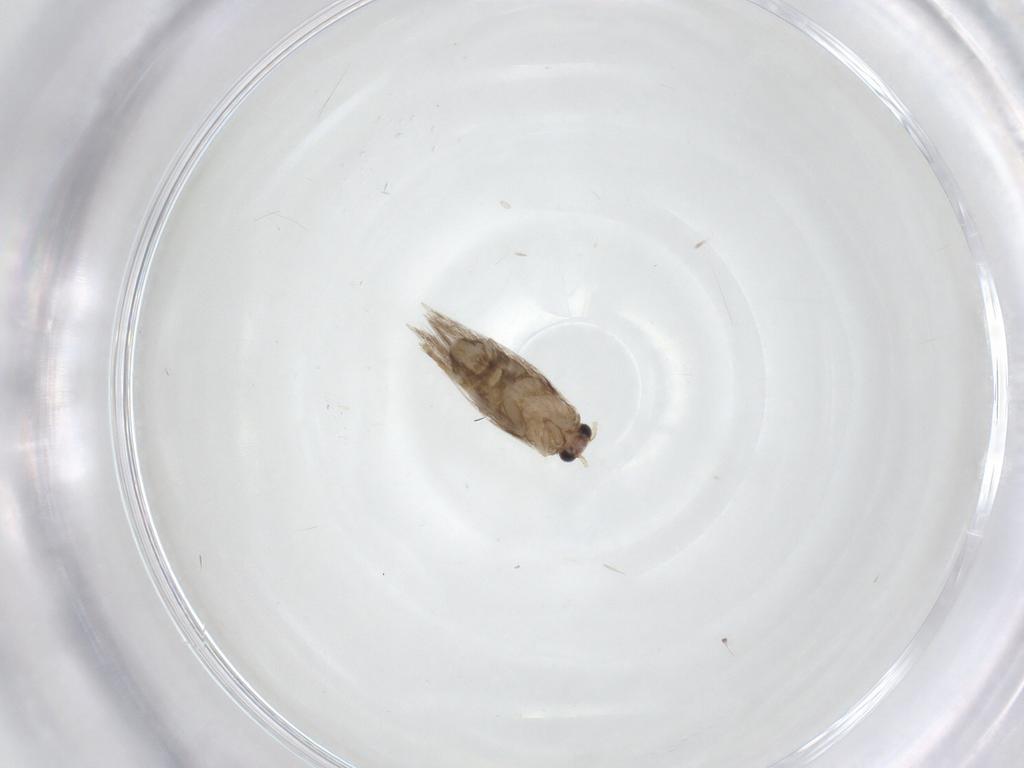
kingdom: Animalia
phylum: Arthropoda
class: Insecta
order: Lepidoptera
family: Nepticulidae
